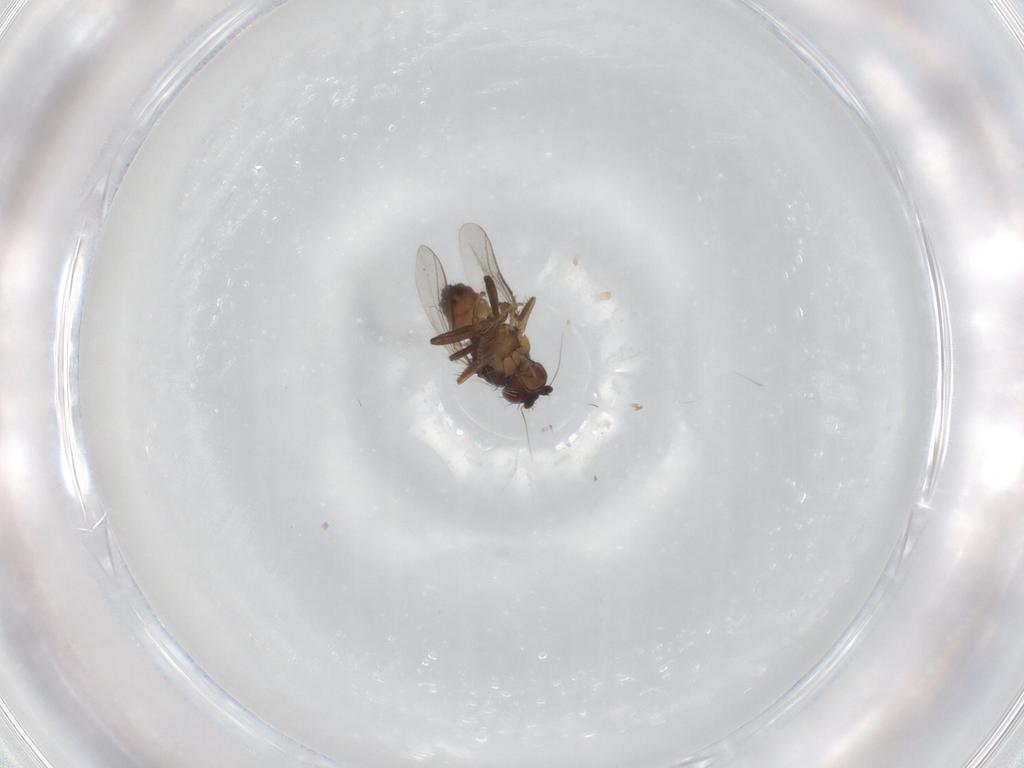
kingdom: Animalia
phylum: Arthropoda
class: Insecta
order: Diptera
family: Sphaeroceridae
